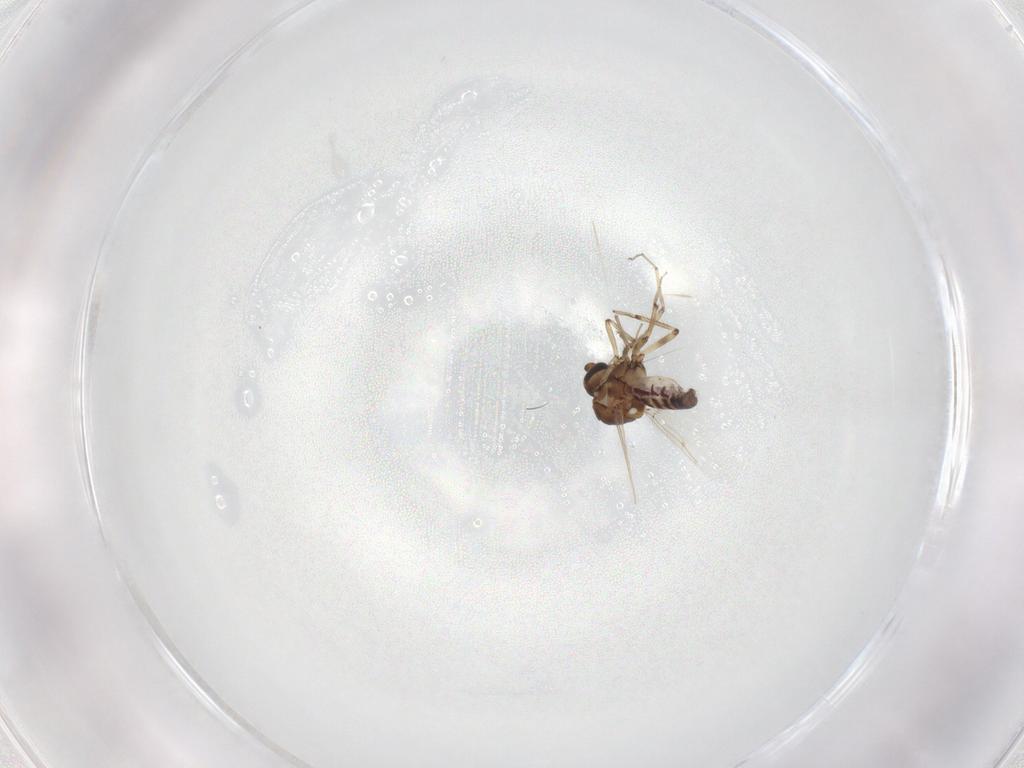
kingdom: Animalia
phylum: Arthropoda
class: Insecta
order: Diptera
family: Ceratopogonidae
